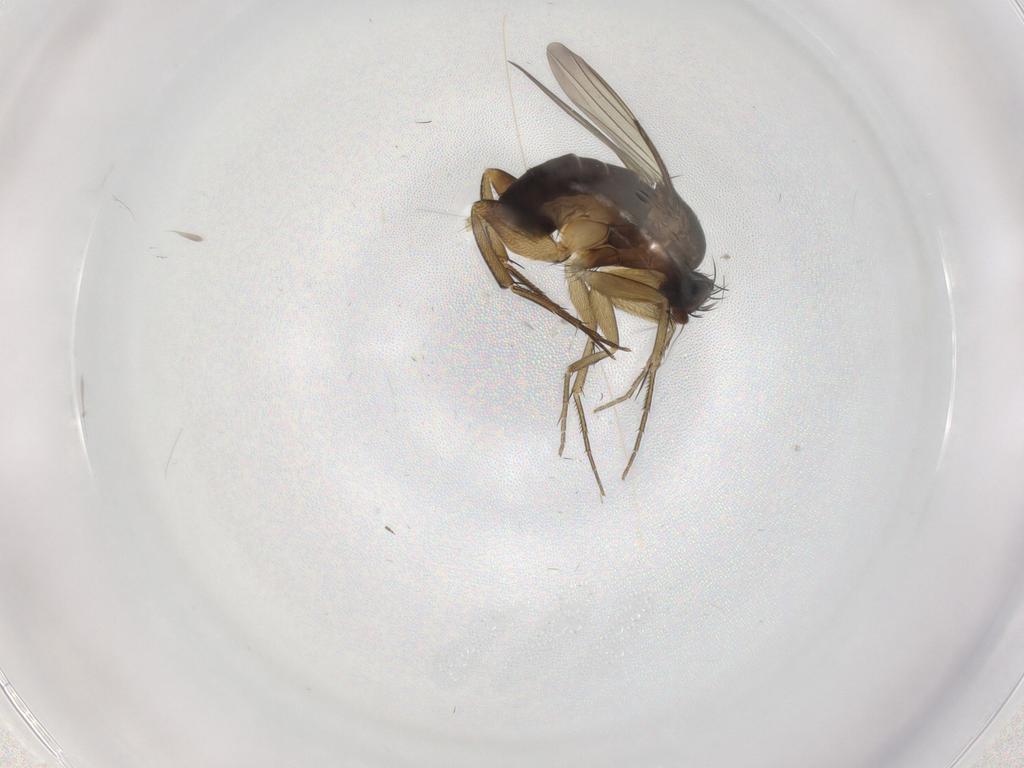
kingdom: Animalia
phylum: Arthropoda
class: Insecta
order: Diptera
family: Phoridae
